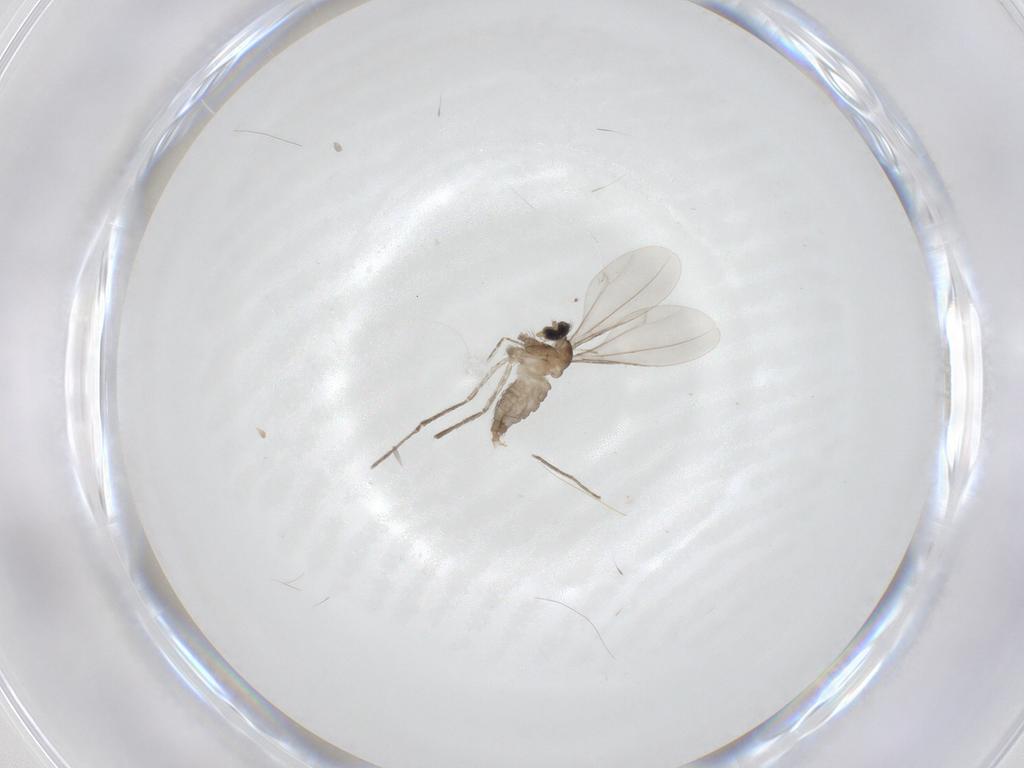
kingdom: Animalia
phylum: Arthropoda
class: Insecta
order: Diptera
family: Cecidomyiidae
